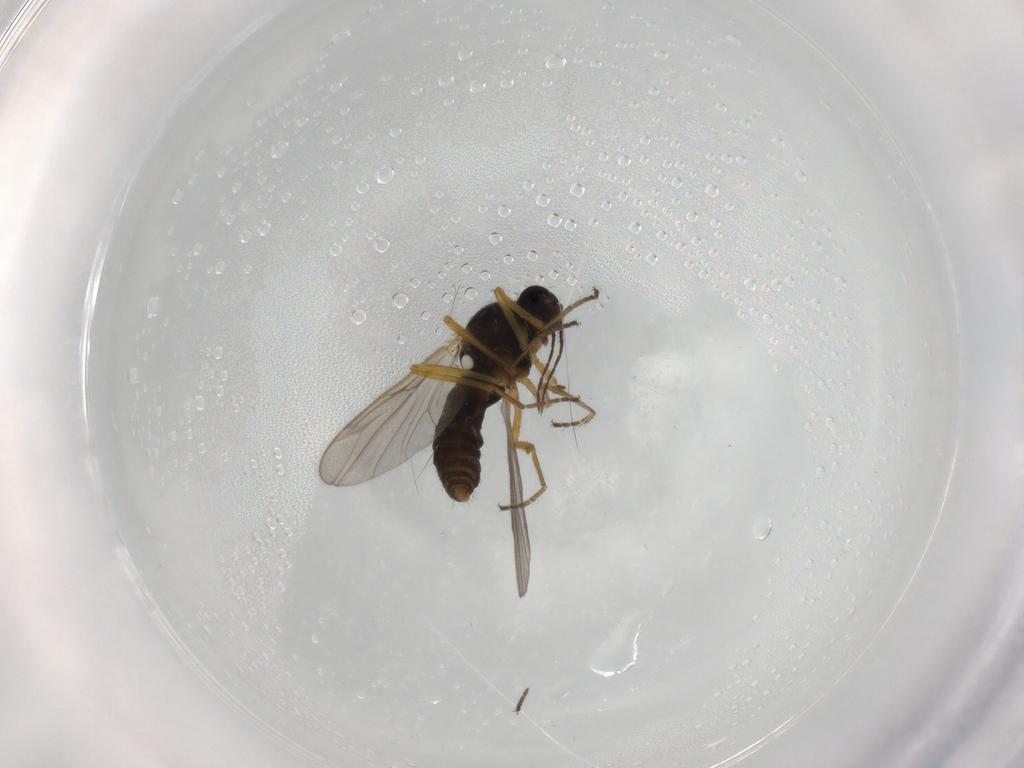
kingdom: Animalia
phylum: Arthropoda
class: Insecta
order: Diptera
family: Ceratopogonidae
